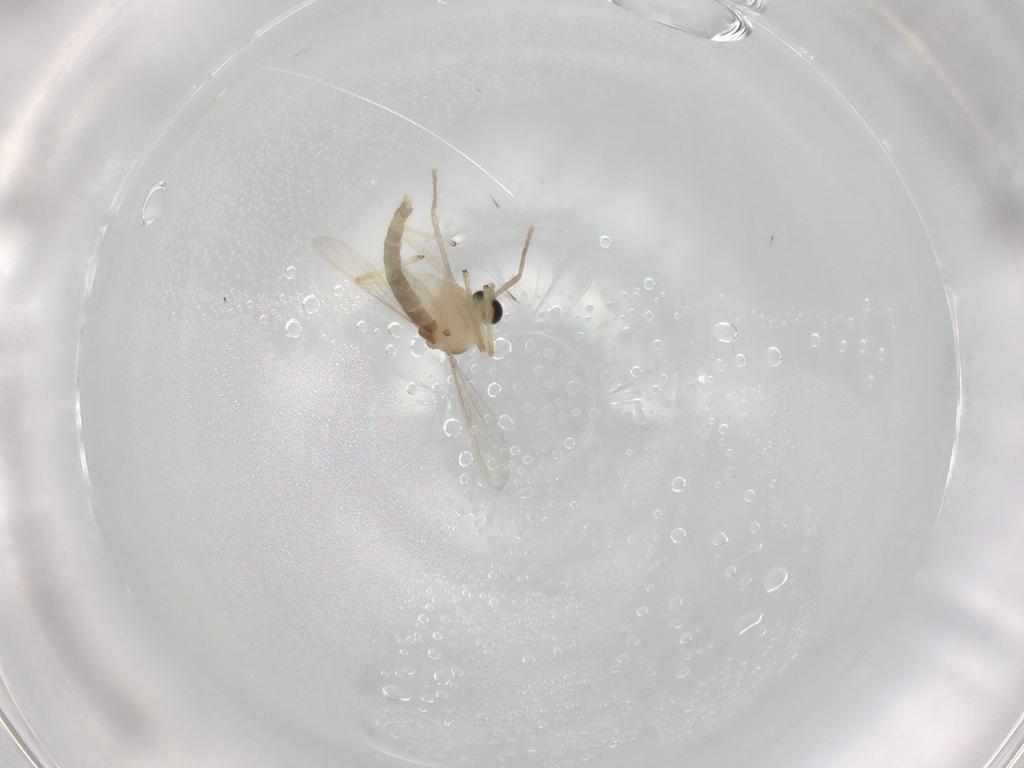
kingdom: Animalia
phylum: Arthropoda
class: Insecta
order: Diptera
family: Chironomidae
